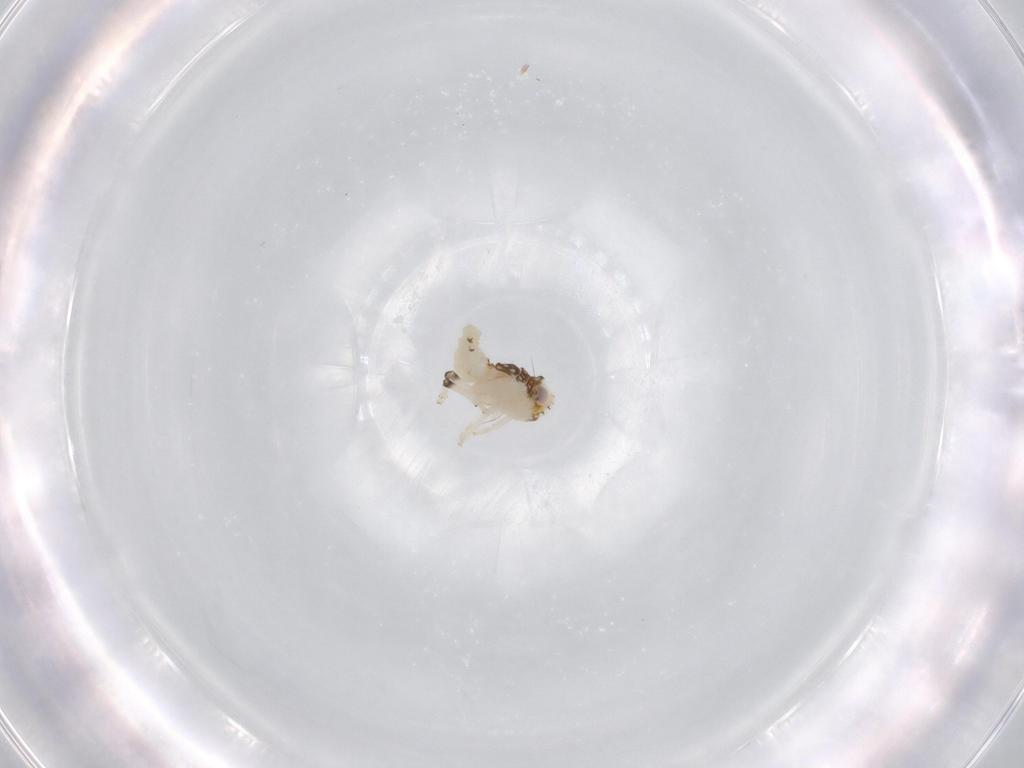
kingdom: Animalia
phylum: Arthropoda
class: Insecta
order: Hemiptera
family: Nogodinidae
